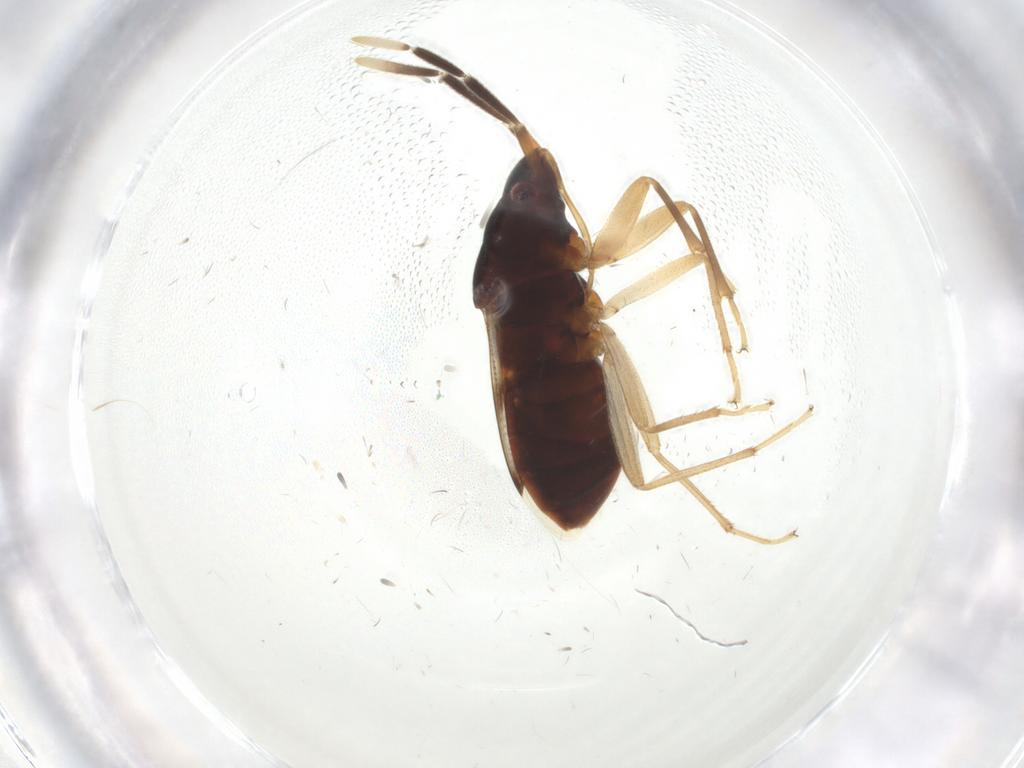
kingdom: Animalia
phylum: Arthropoda
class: Insecta
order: Hemiptera
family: Rhyparochromidae
